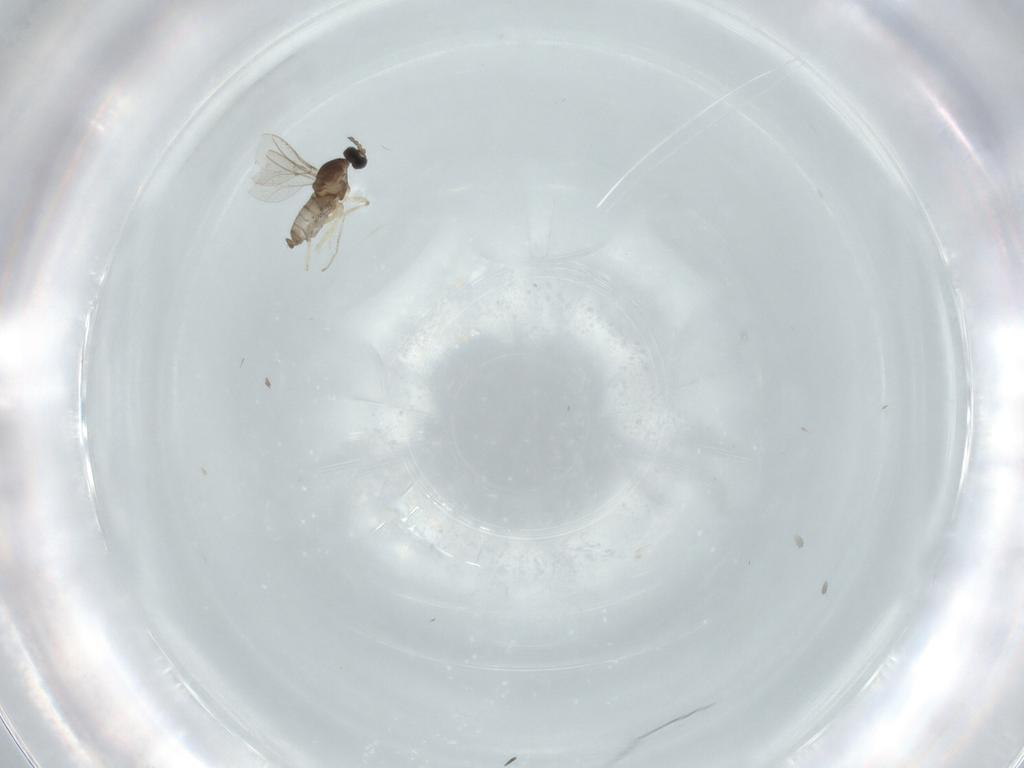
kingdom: Animalia
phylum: Arthropoda
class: Insecta
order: Diptera
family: Cecidomyiidae
